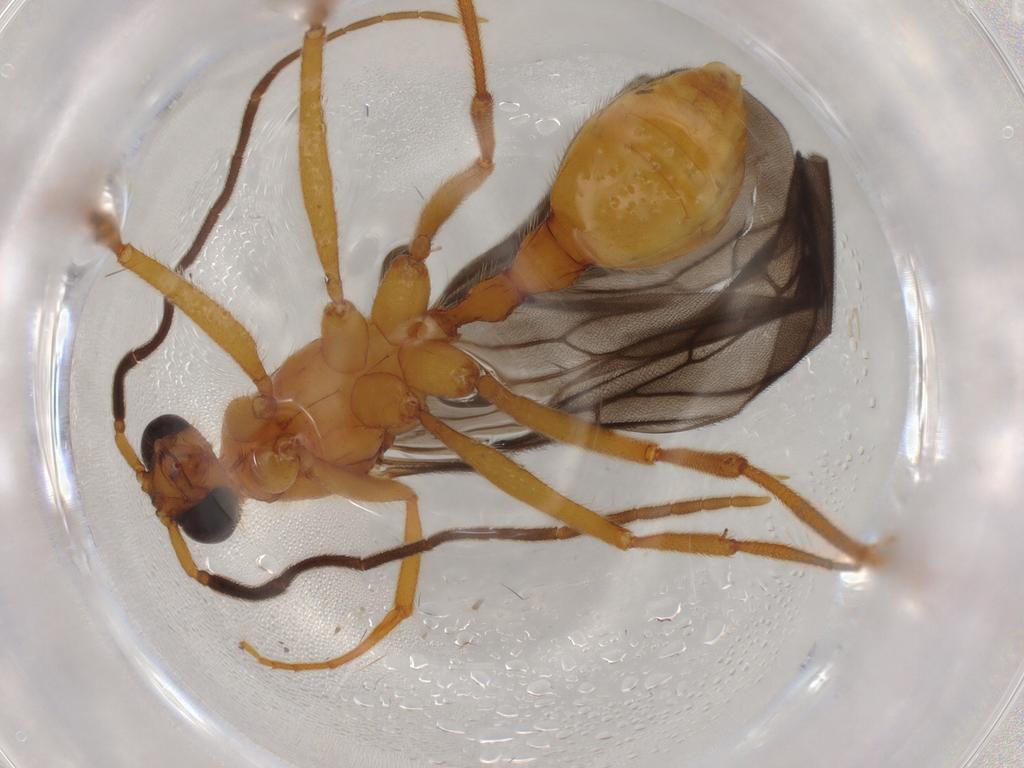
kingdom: Animalia
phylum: Arthropoda
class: Insecta
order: Hymenoptera
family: Formicidae
